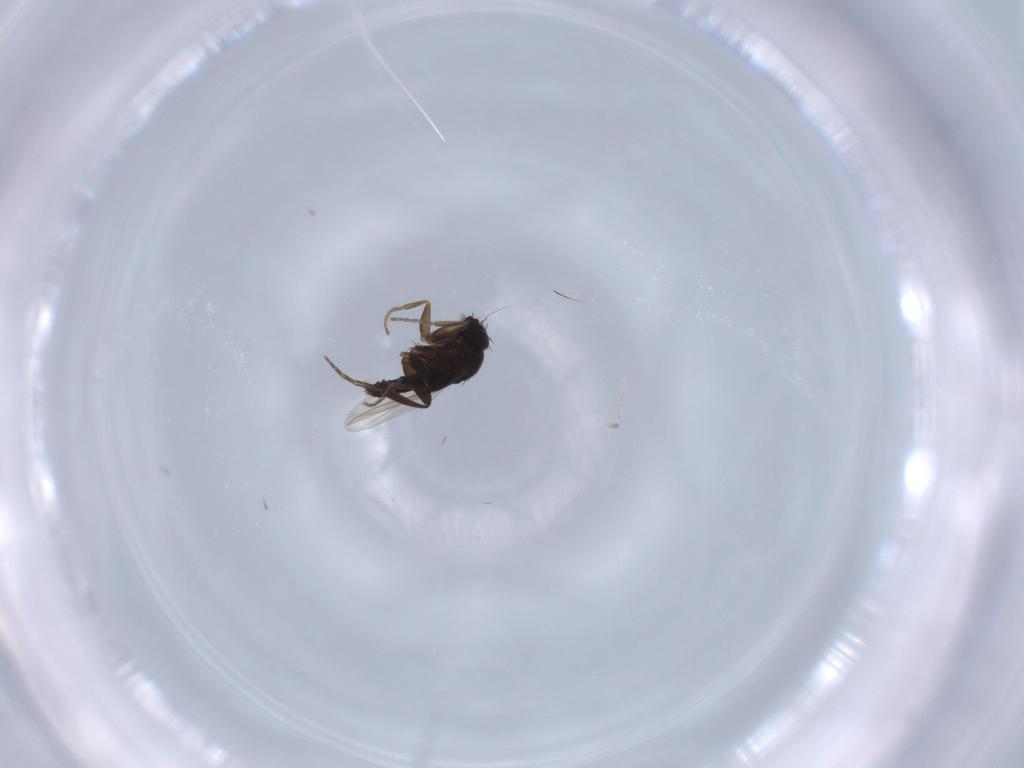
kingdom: Animalia
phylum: Arthropoda
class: Insecta
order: Diptera
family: Phoridae
